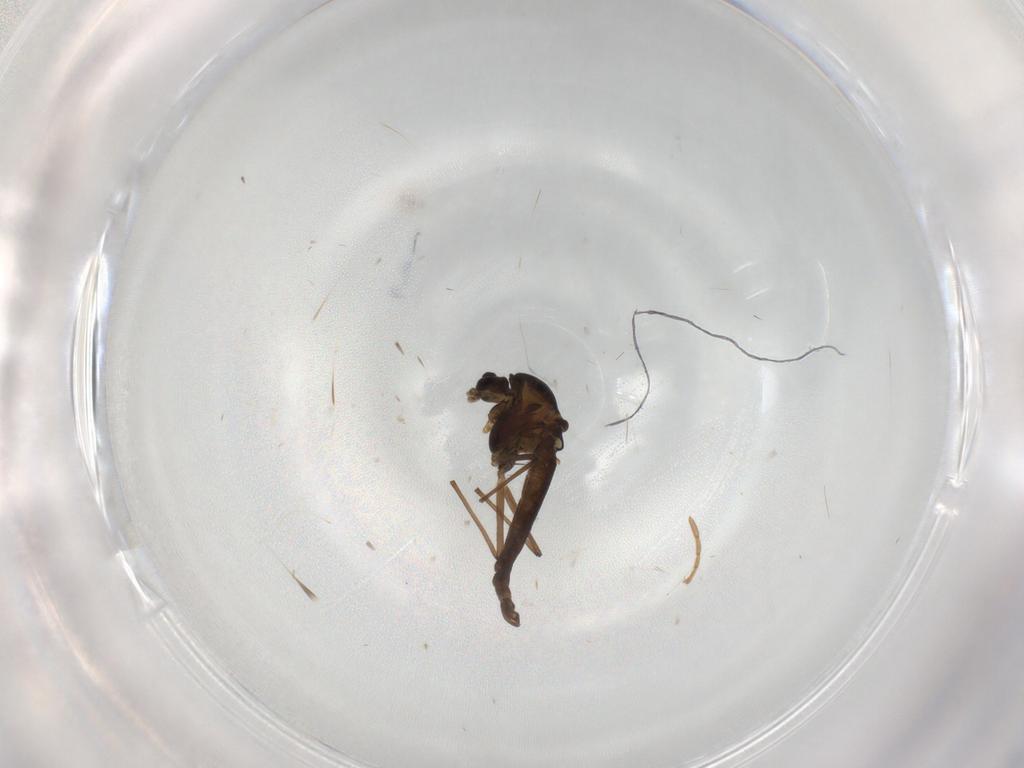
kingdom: Animalia
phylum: Arthropoda
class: Insecta
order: Diptera
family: Chironomidae
